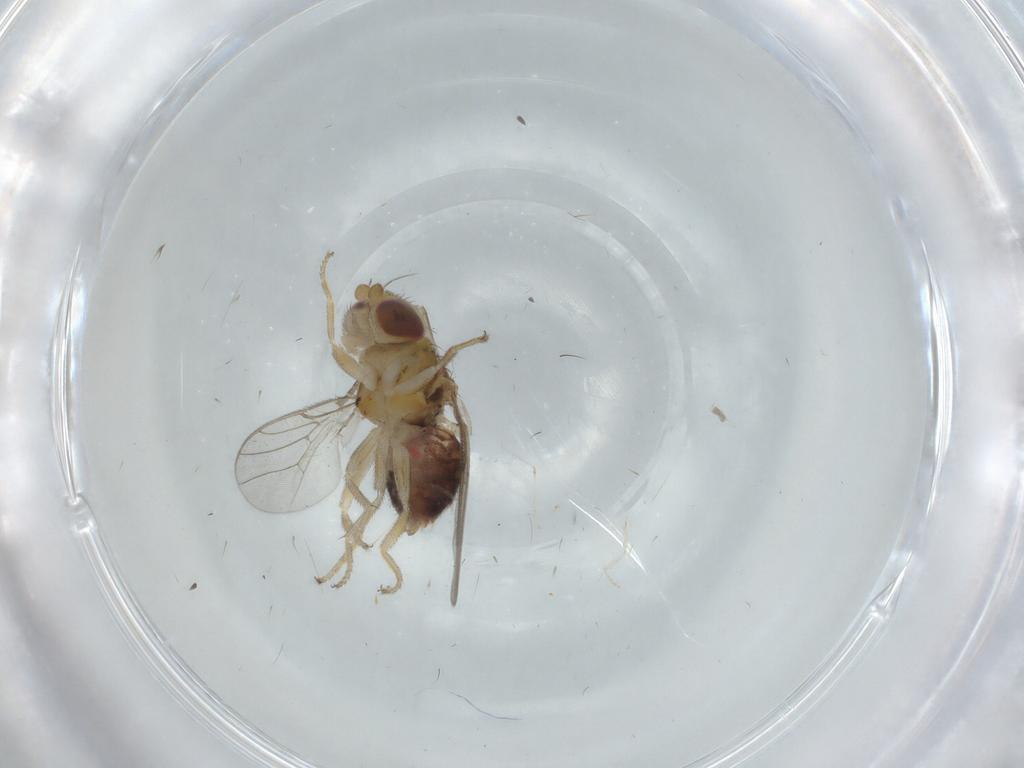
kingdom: Animalia
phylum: Arthropoda
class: Insecta
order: Diptera
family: Chloropidae
